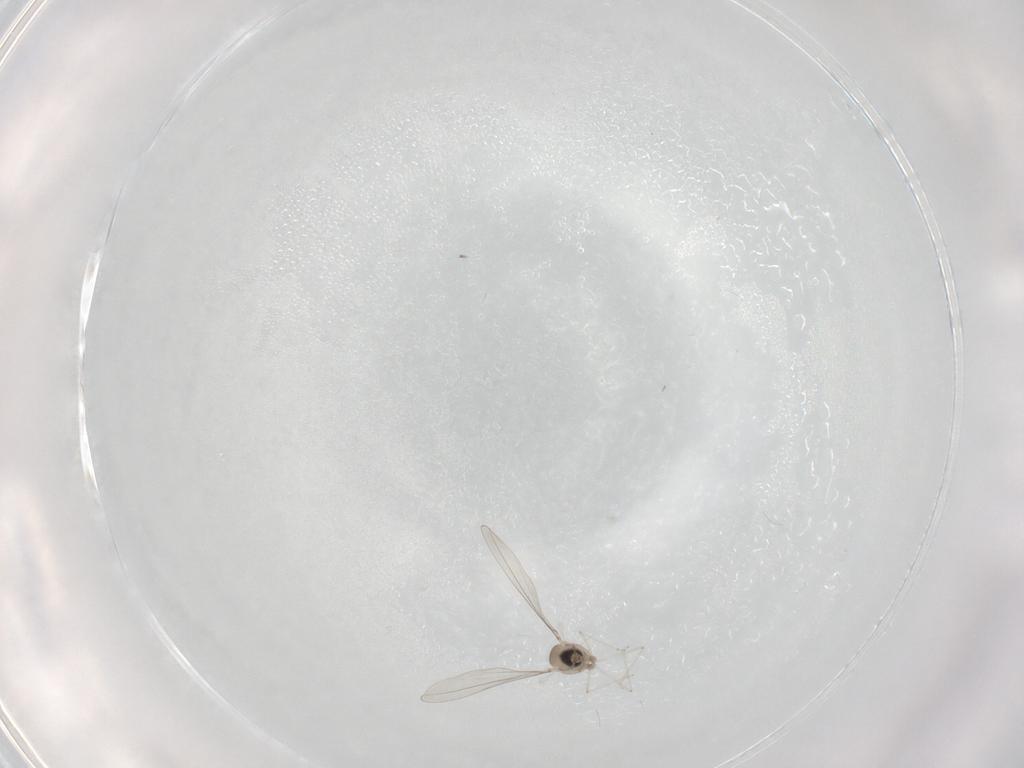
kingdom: Animalia
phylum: Arthropoda
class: Insecta
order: Diptera
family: Cecidomyiidae
